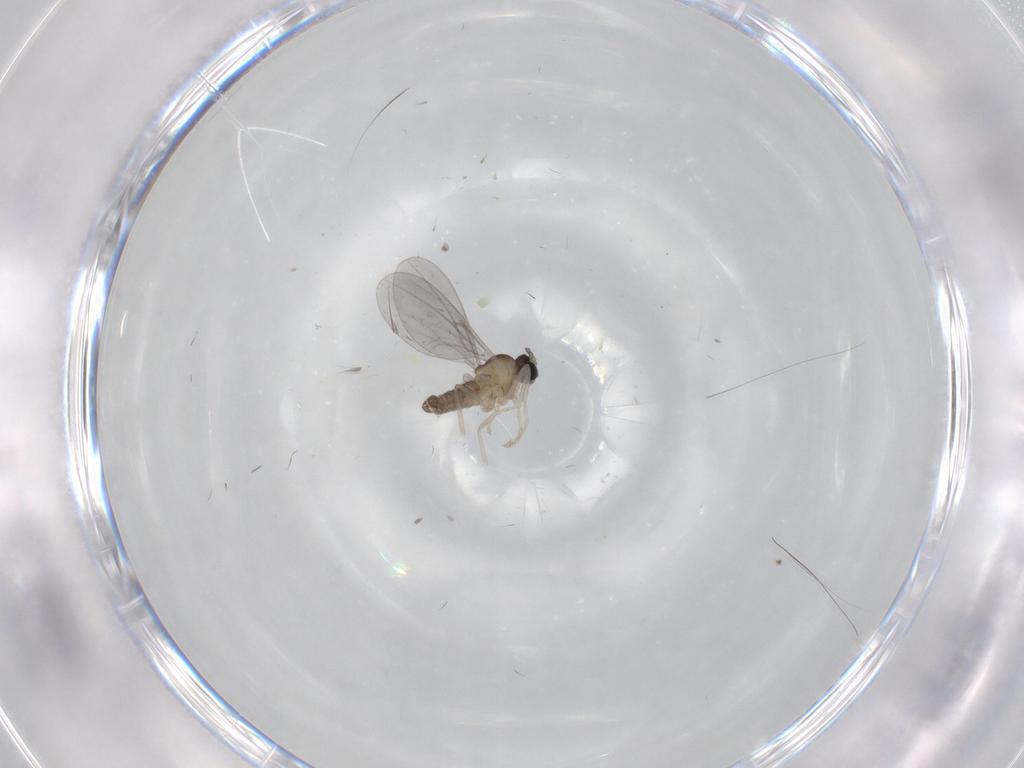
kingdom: Animalia
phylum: Arthropoda
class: Insecta
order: Diptera
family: Cecidomyiidae
